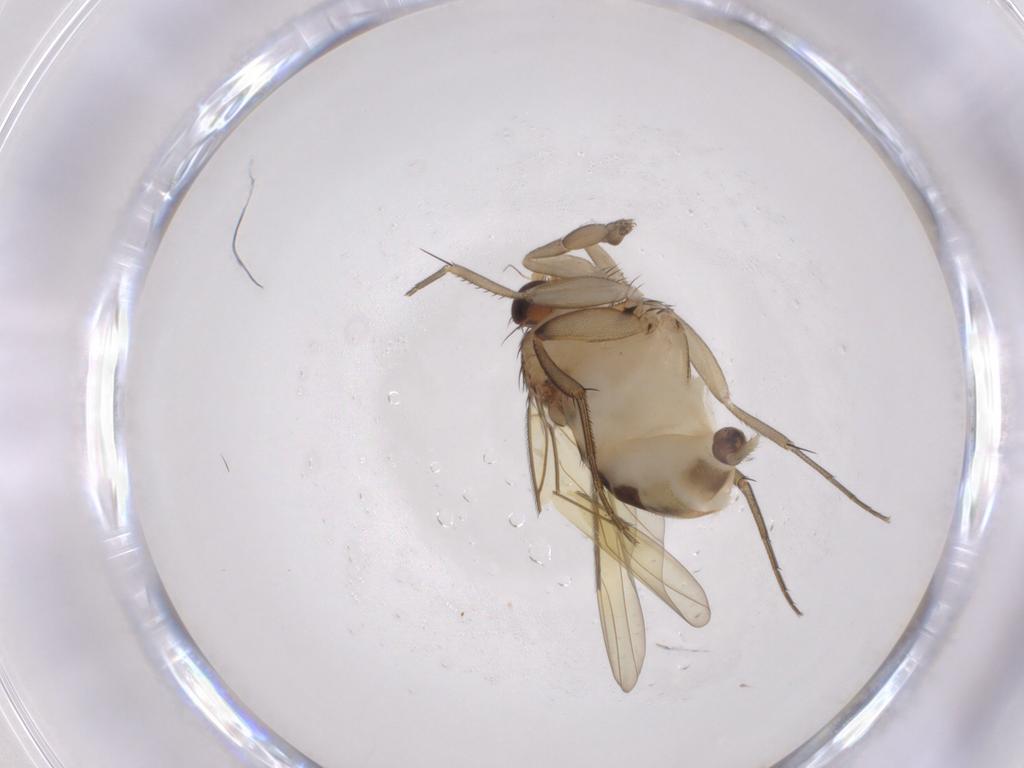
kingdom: Animalia
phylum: Arthropoda
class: Insecta
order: Diptera
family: Phoridae
